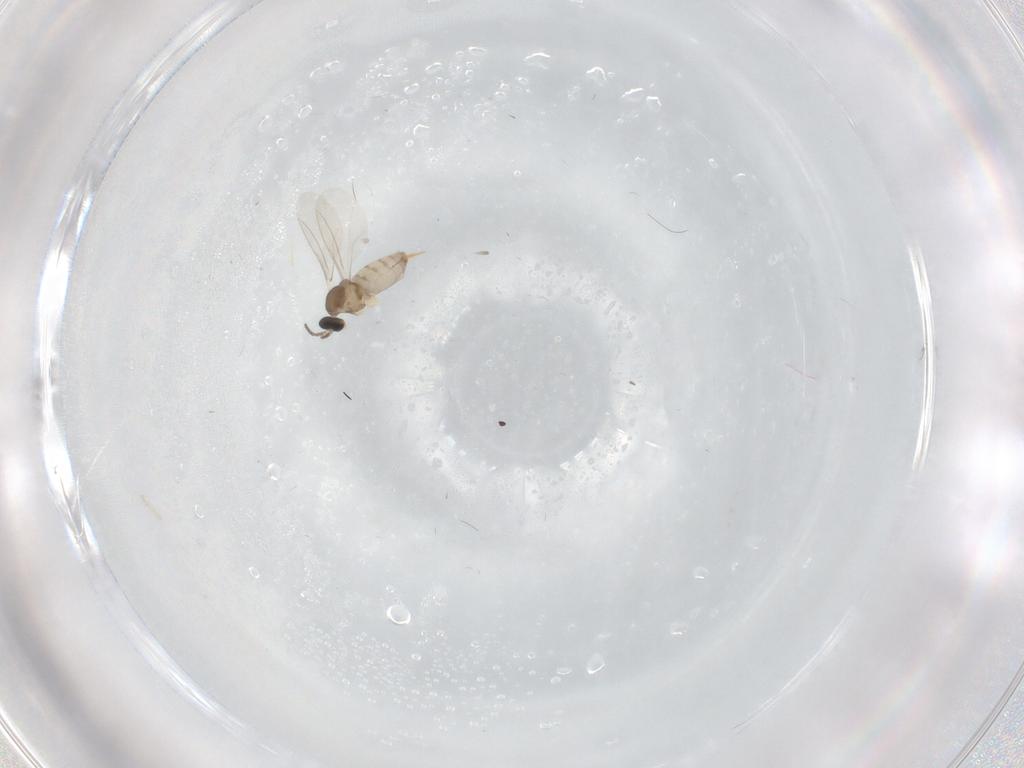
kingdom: Animalia
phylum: Arthropoda
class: Insecta
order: Diptera
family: Cecidomyiidae
